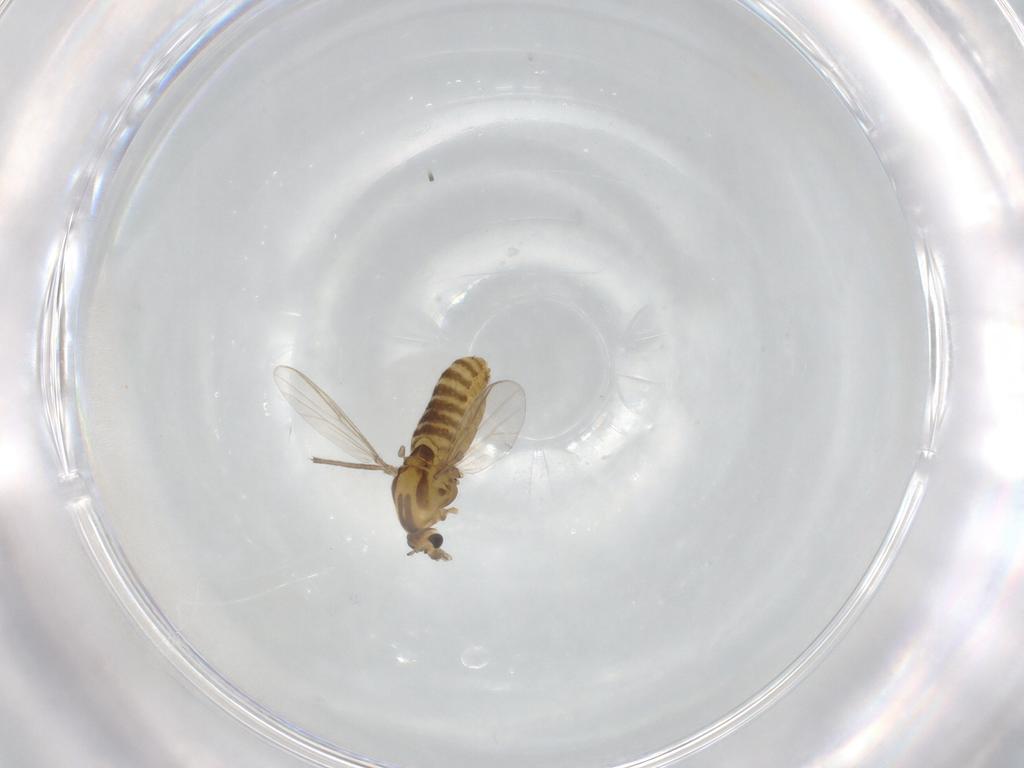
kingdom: Animalia
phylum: Arthropoda
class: Insecta
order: Diptera
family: Chironomidae
